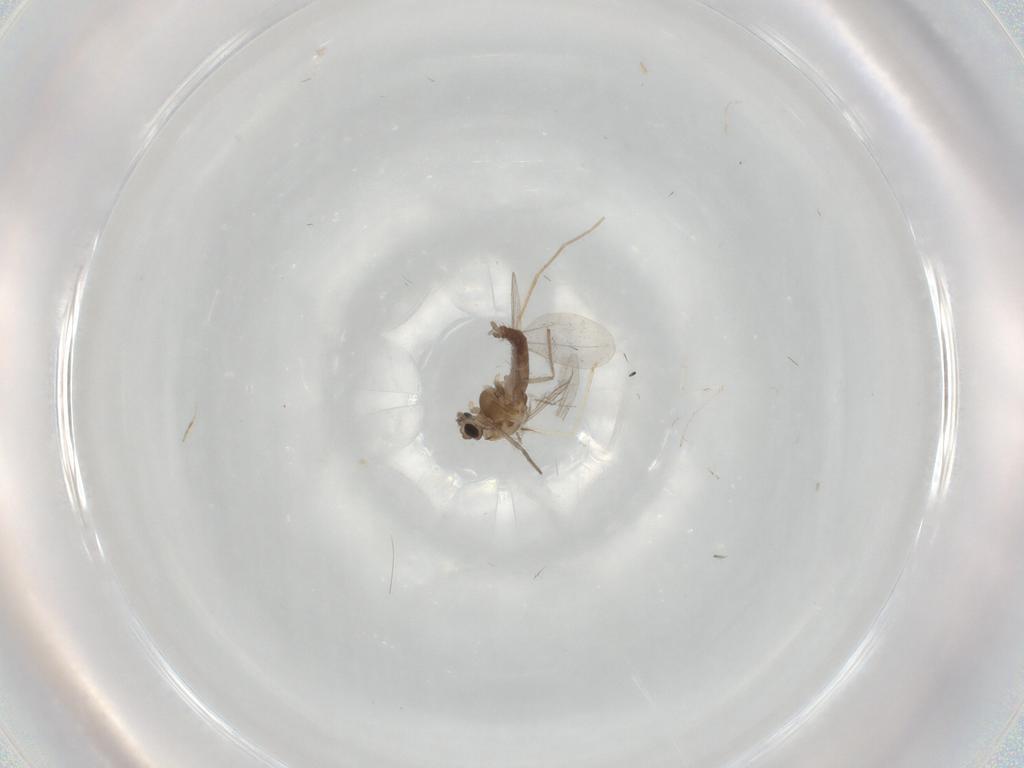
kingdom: Animalia
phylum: Arthropoda
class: Insecta
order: Diptera
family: Chironomidae
